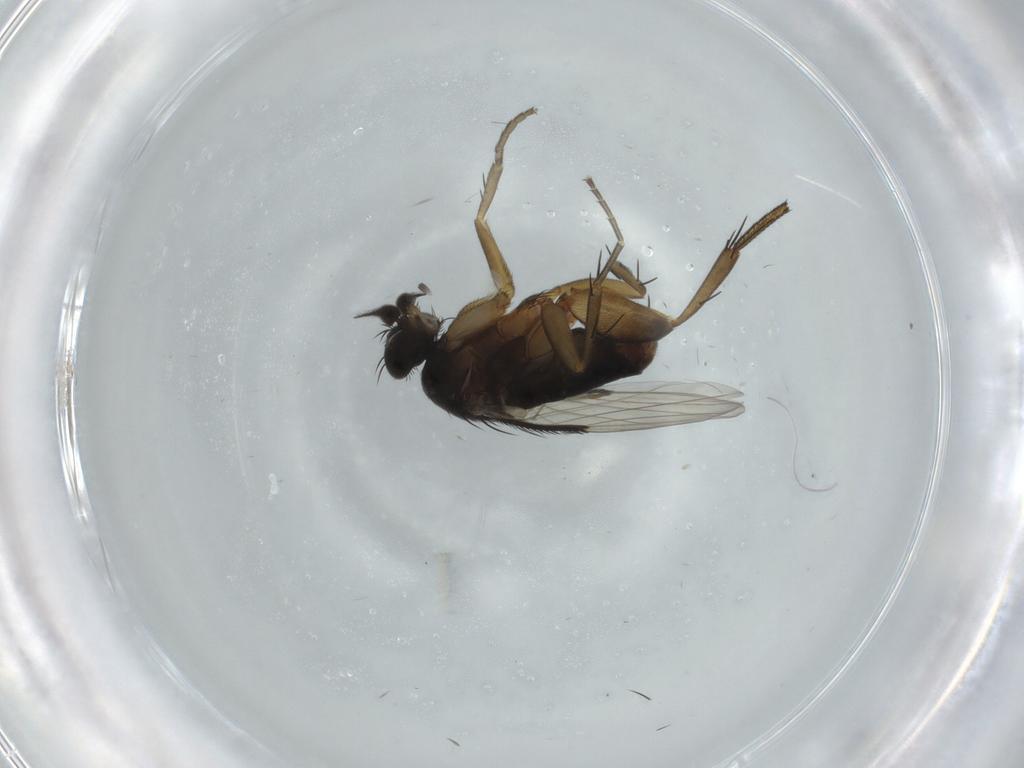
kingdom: Animalia
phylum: Arthropoda
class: Insecta
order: Diptera
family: Phoridae
